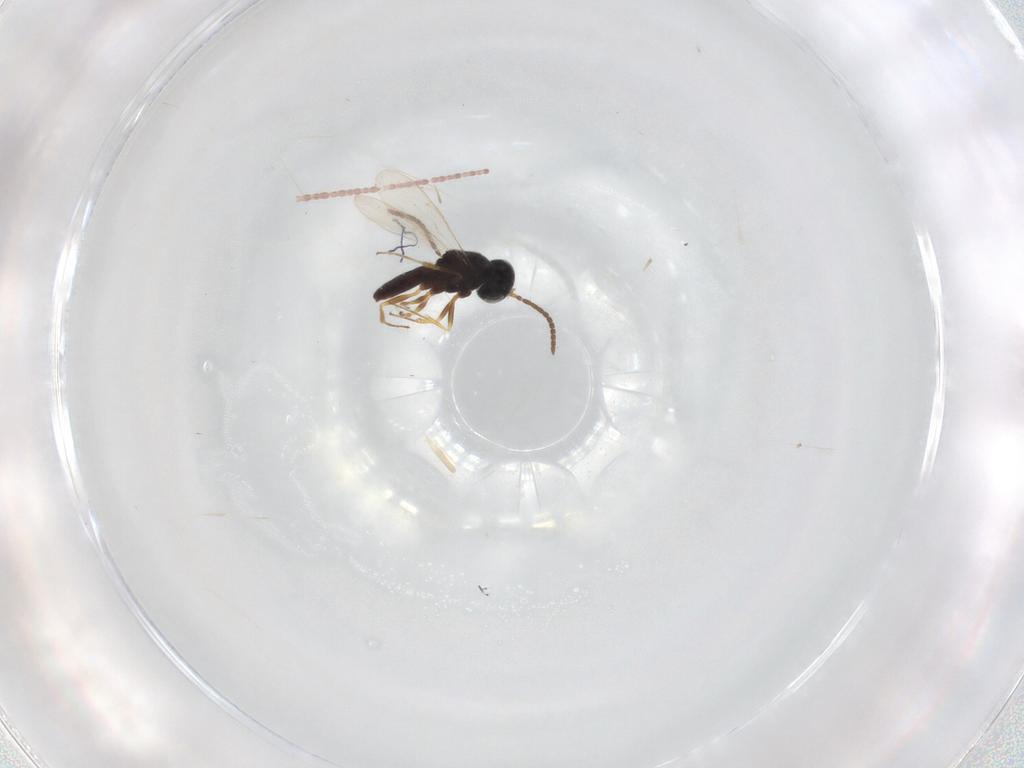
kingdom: Animalia
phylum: Arthropoda
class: Insecta
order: Hymenoptera
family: Scelionidae
